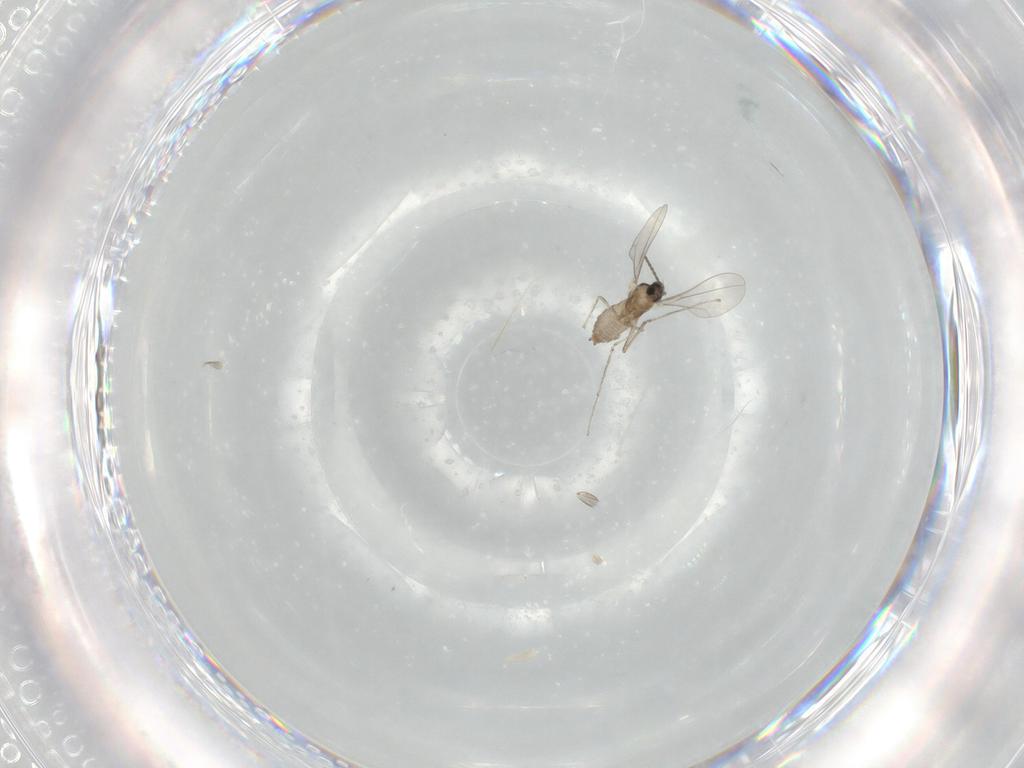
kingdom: Animalia
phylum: Arthropoda
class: Insecta
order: Diptera
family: Cecidomyiidae
